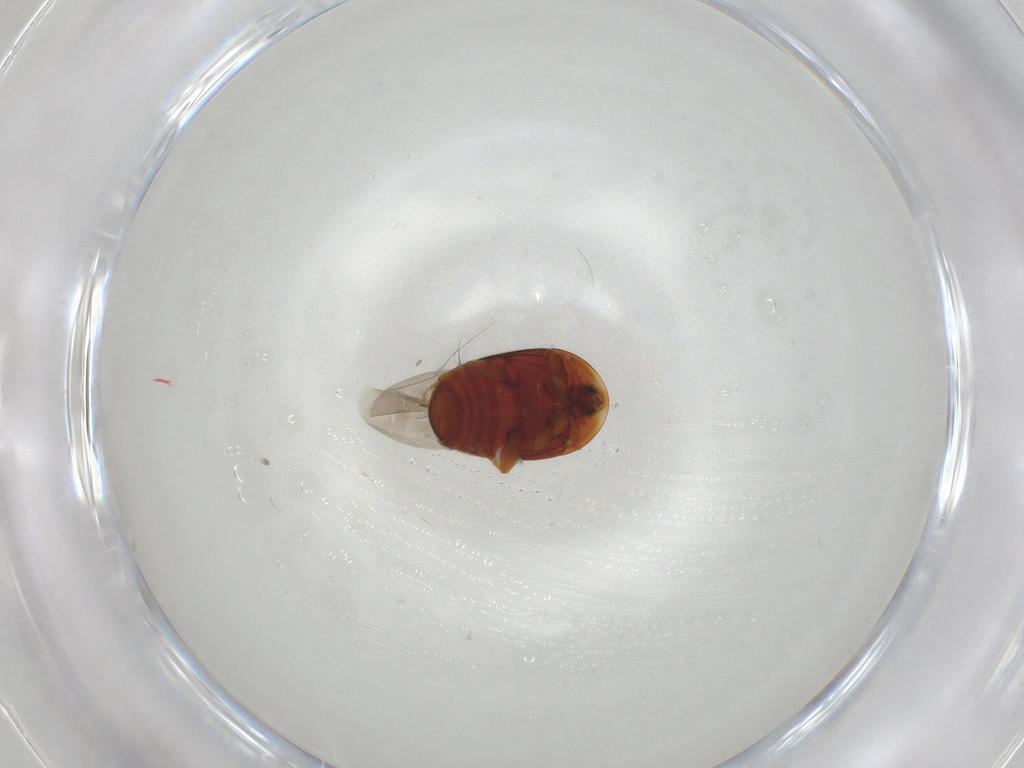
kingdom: Animalia
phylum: Arthropoda
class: Insecta
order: Coleoptera
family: Corylophidae
